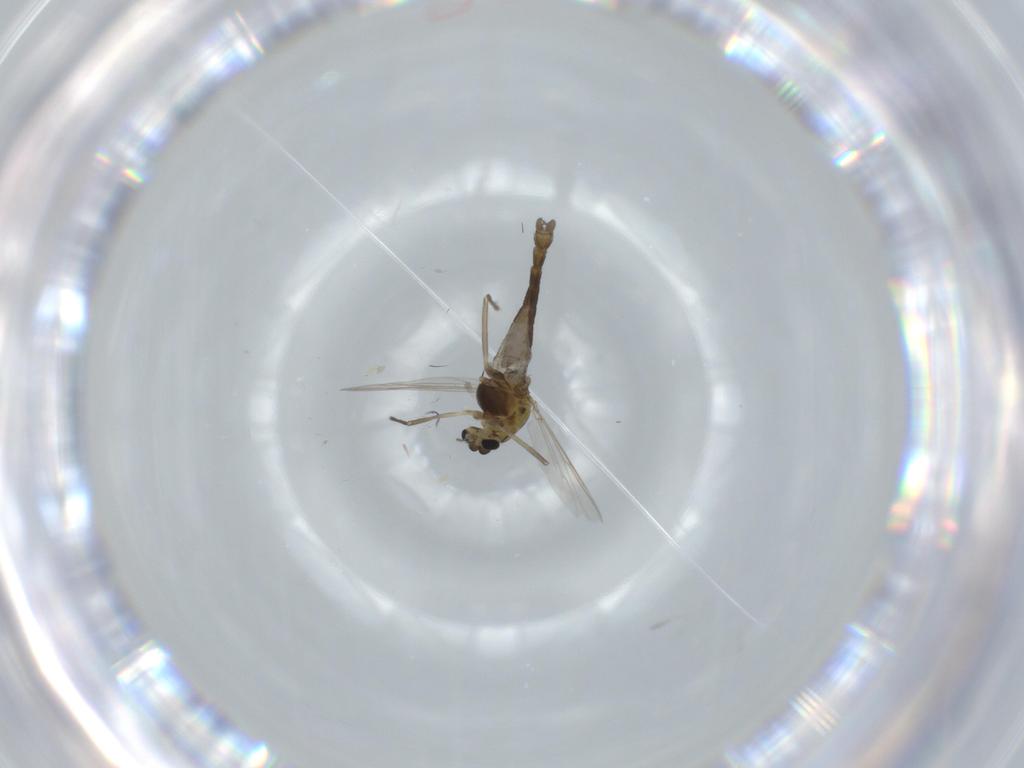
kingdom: Animalia
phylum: Arthropoda
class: Insecta
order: Diptera
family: Chironomidae
